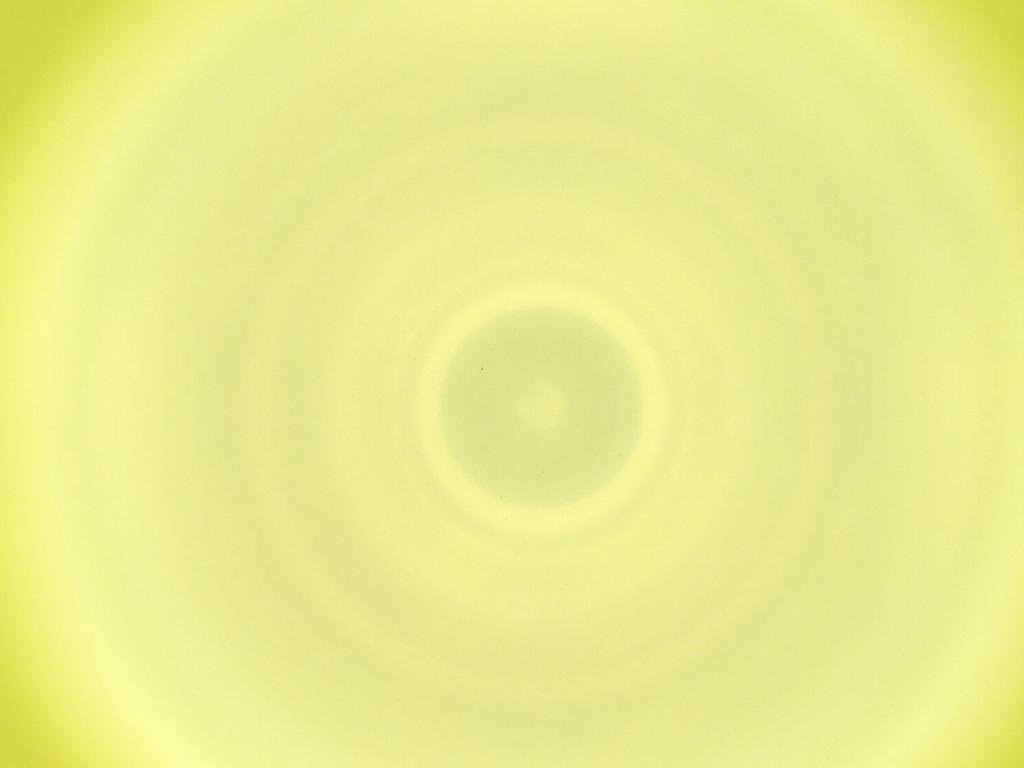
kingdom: Animalia
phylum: Arthropoda
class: Insecta
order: Diptera
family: Cecidomyiidae
